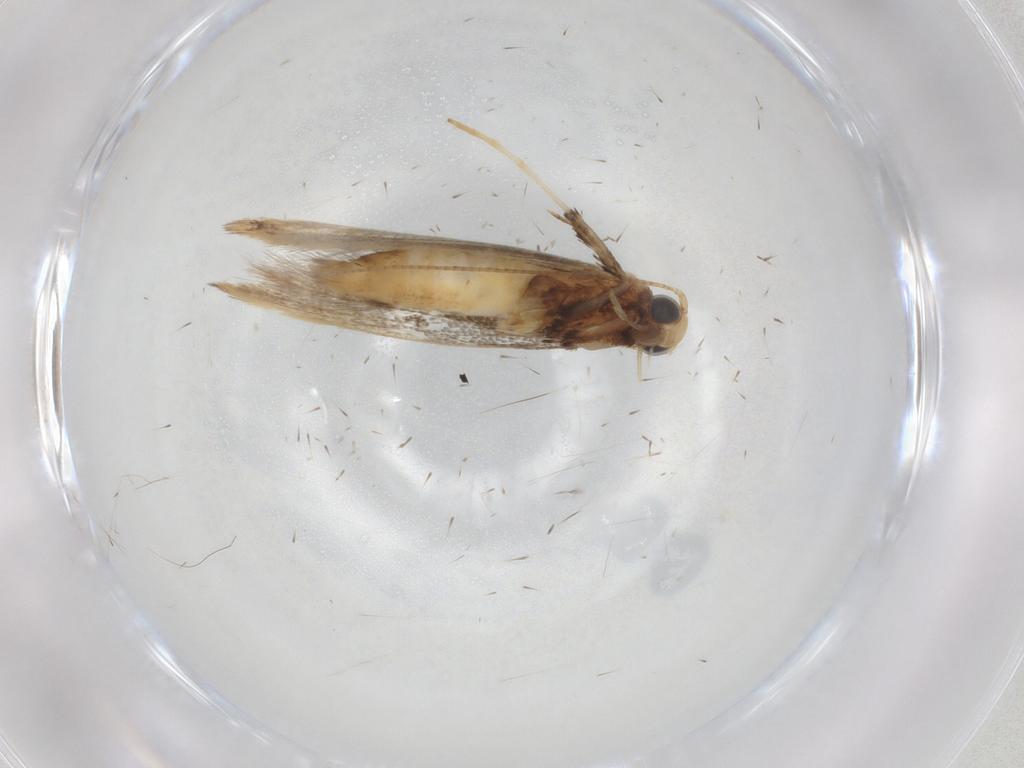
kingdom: Animalia
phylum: Arthropoda
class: Insecta
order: Lepidoptera
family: Gracillariidae
